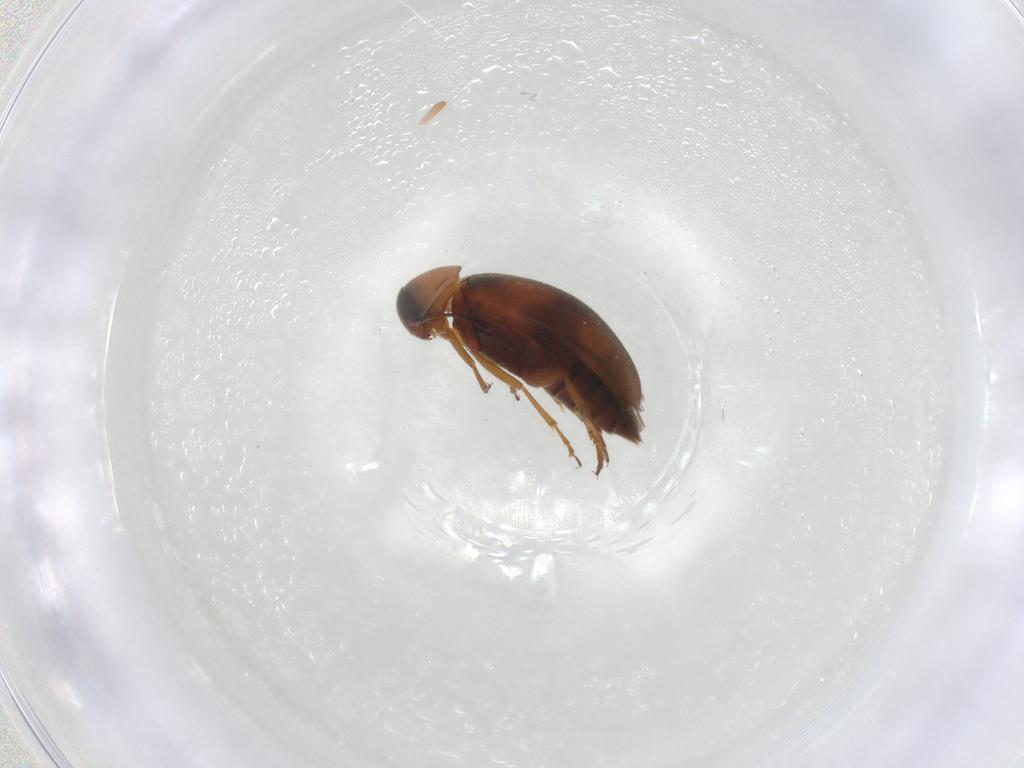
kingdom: Animalia
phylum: Arthropoda
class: Insecta
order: Coleoptera
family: Scraptiidae
